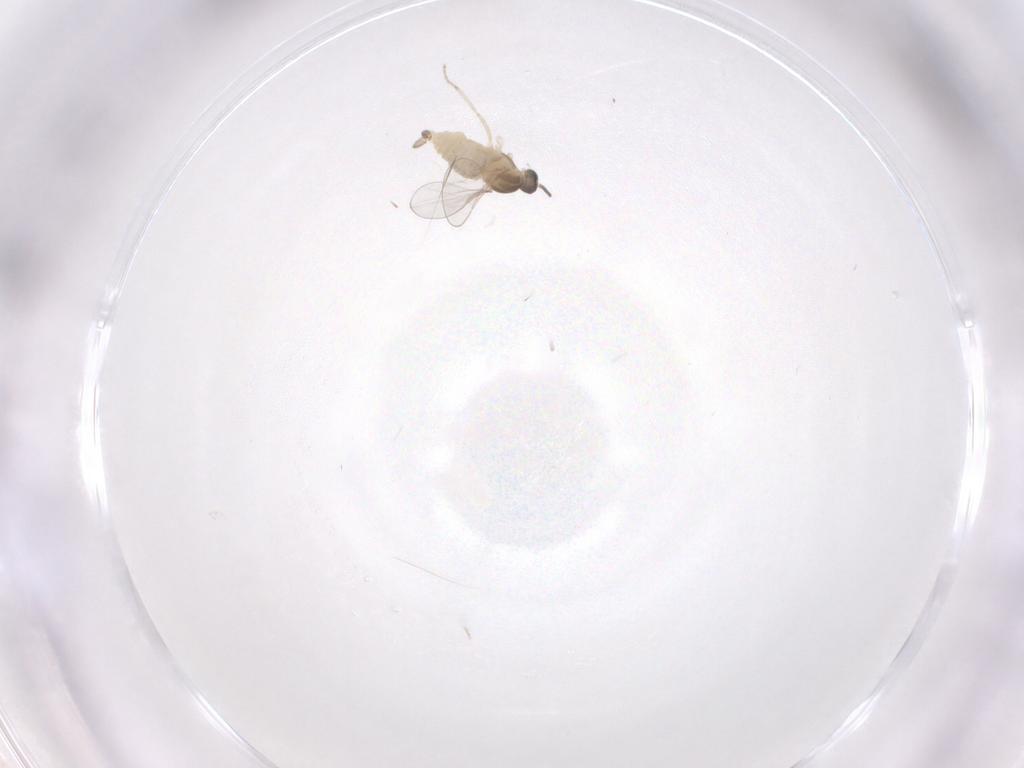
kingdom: Animalia
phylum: Arthropoda
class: Insecta
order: Diptera
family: Cecidomyiidae
